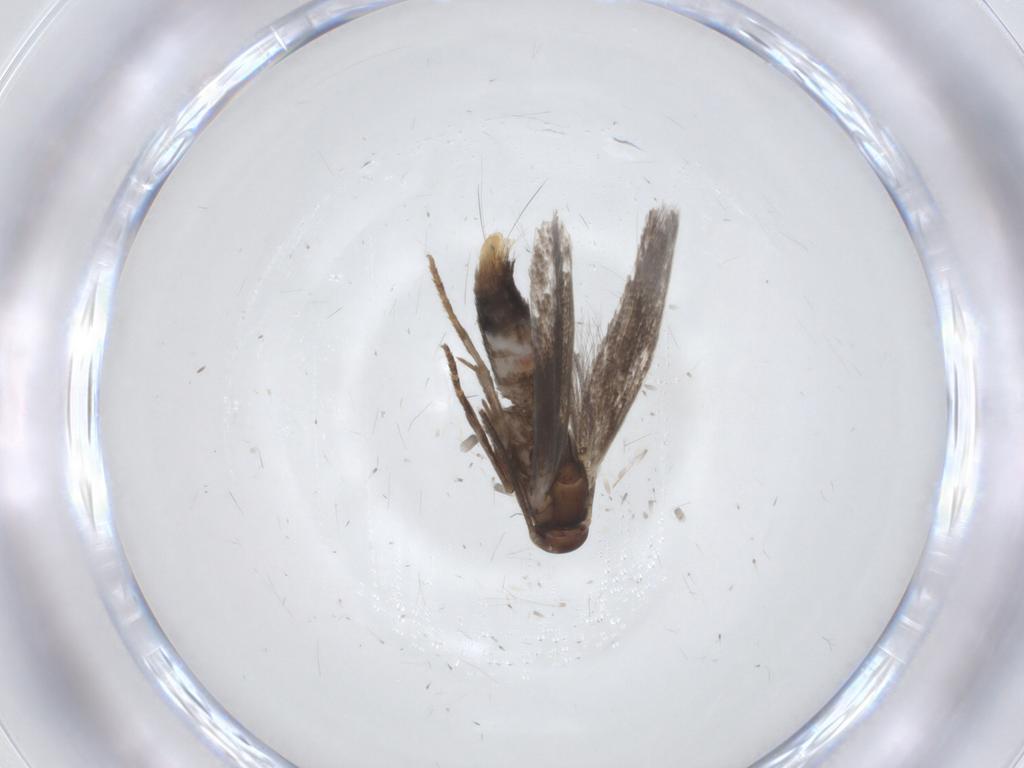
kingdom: Animalia
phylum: Arthropoda
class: Insecta
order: Lepidoptera
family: Elachistidae
